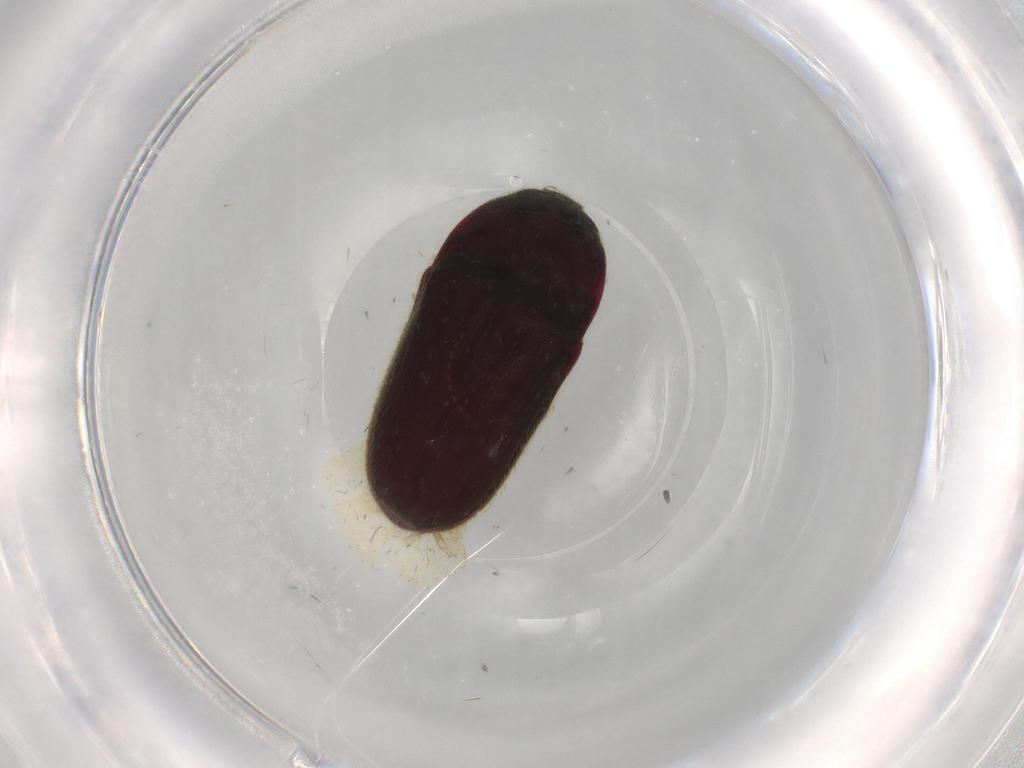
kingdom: Animalia
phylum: Arthropoda
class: Insecta
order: Coleoptera
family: Throscidae
